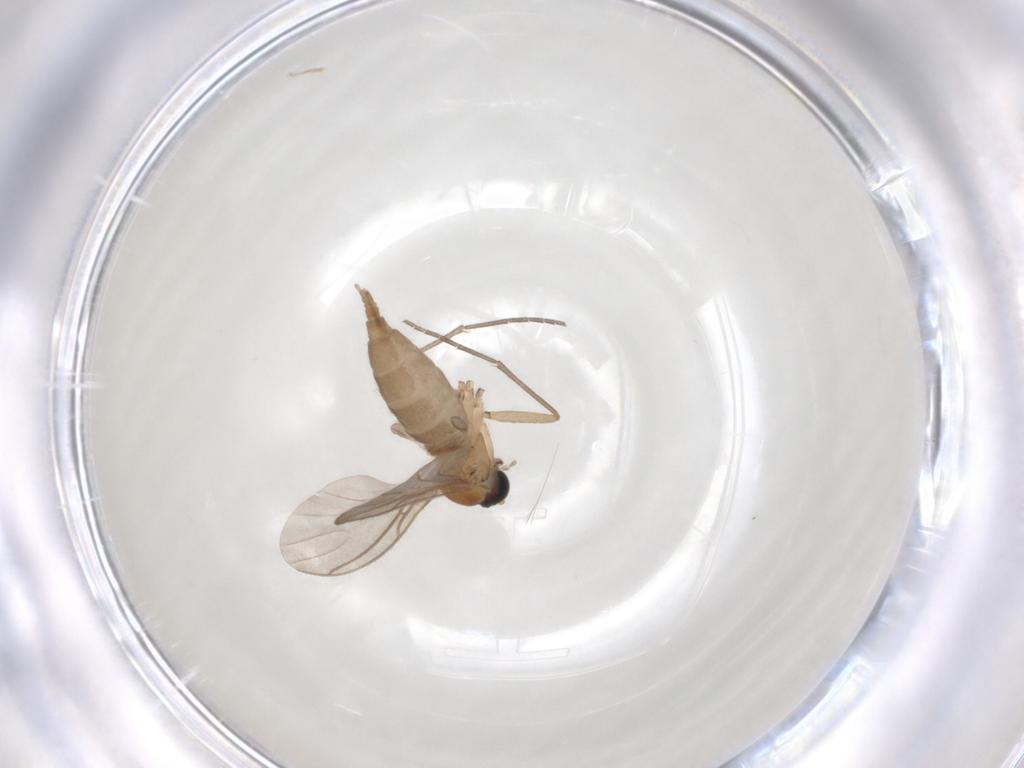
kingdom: Animalia
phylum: Arthropoda
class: Insecta
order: Diptera
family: Sciaridae
